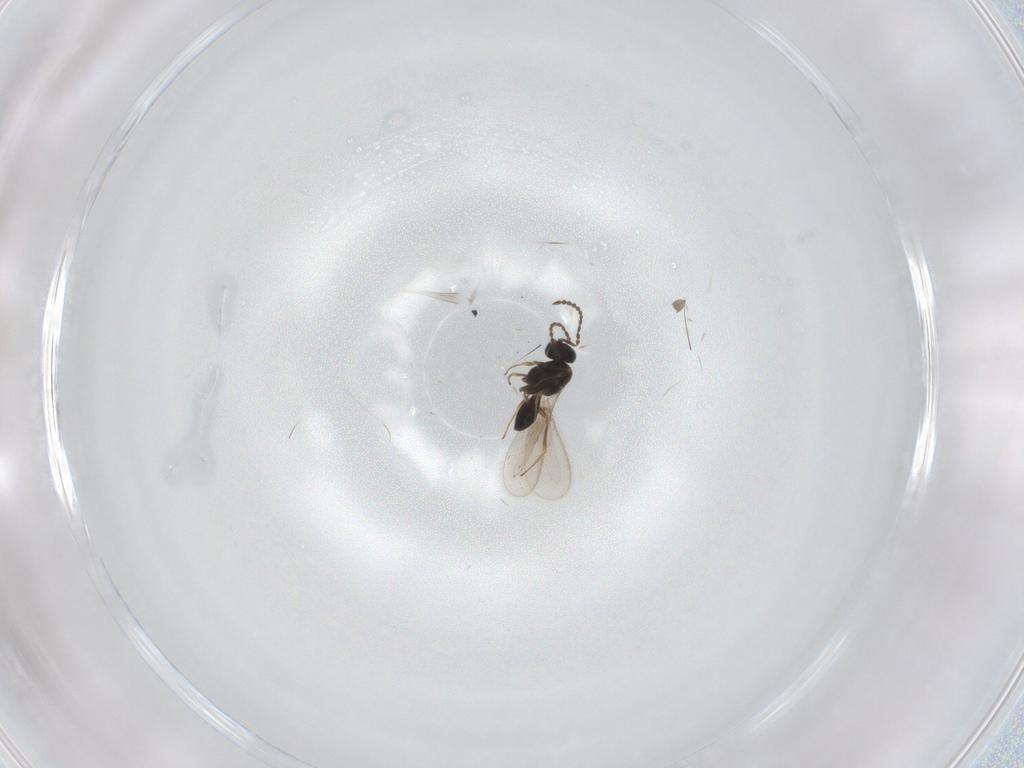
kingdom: Animalia
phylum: Arthropoda
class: Insecta
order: Hymenoptera
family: Scelionidae
